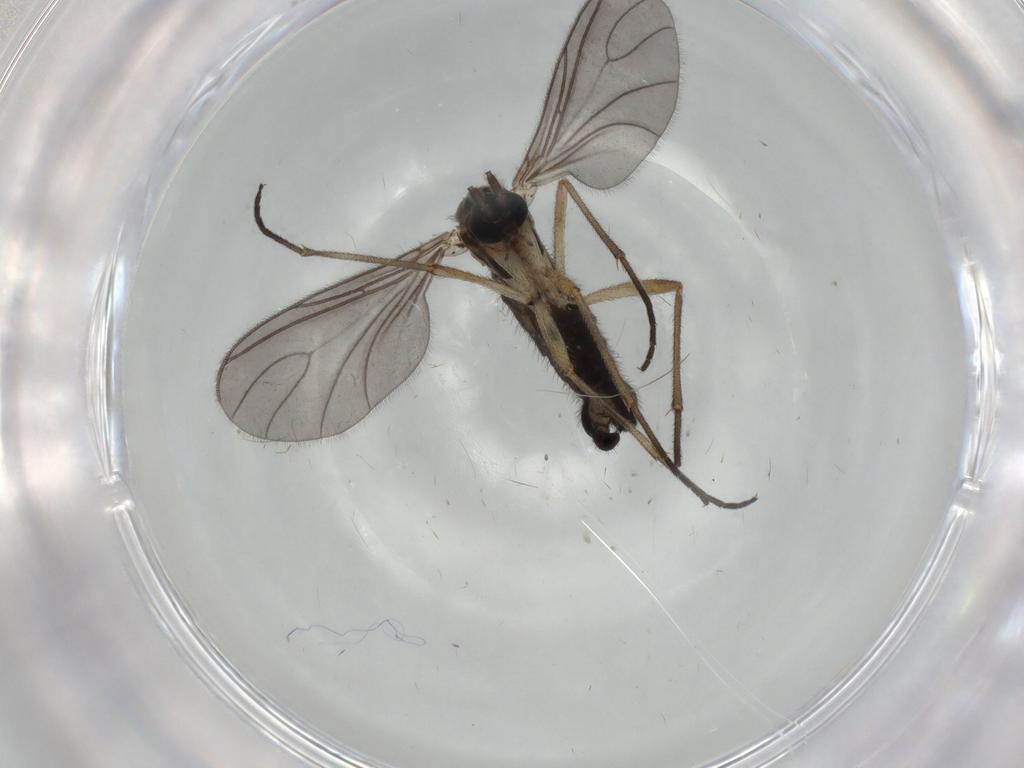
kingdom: Animalia
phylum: Arthropoda
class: Insecta
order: Diptera
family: Sciaridae
